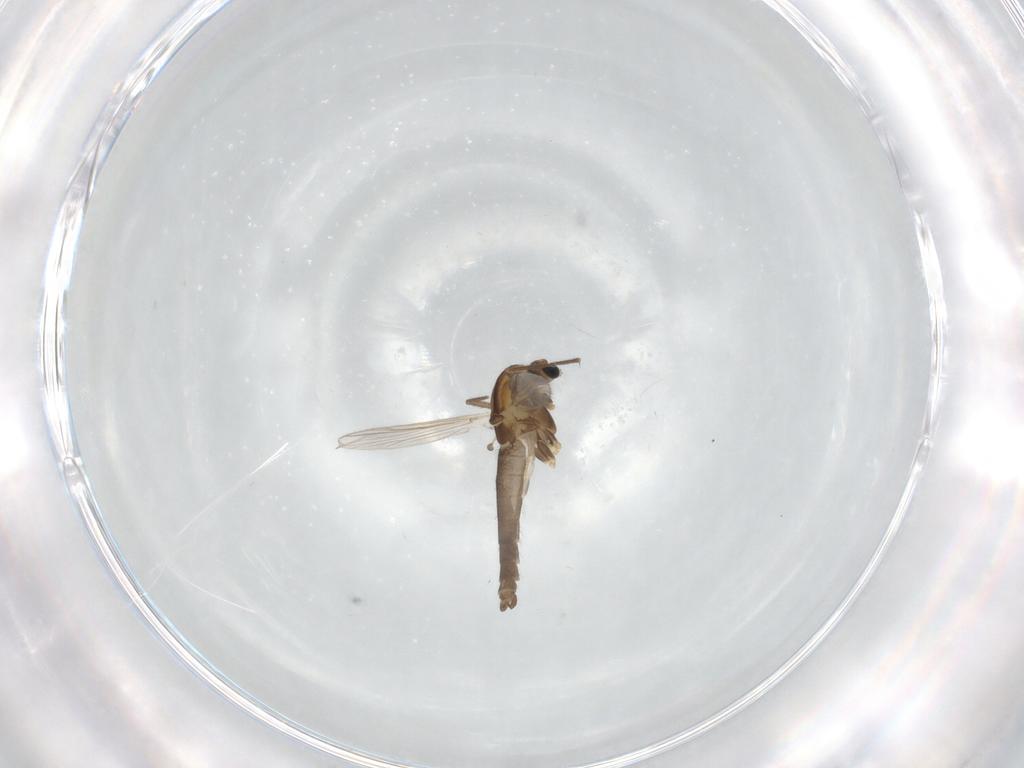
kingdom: Animalia
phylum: Arthropoda
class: Insecta
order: Diptera
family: Chironomidae
